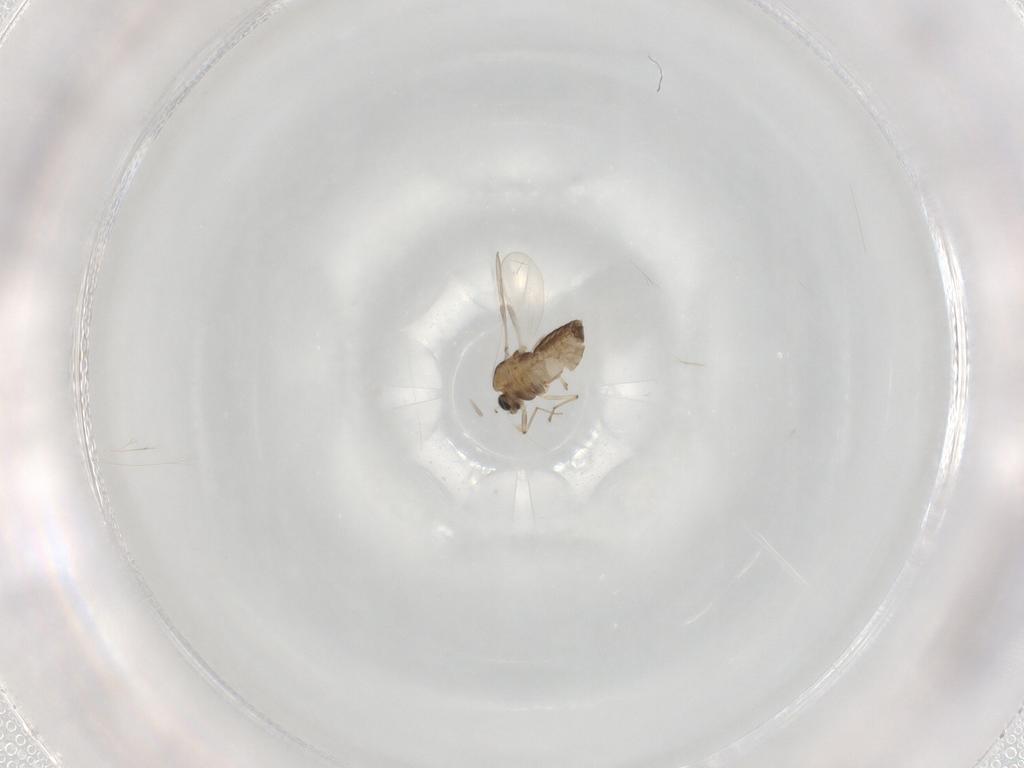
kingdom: Animalia
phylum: Arthropoda
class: Insecta
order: Diptera
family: Chironomidae
